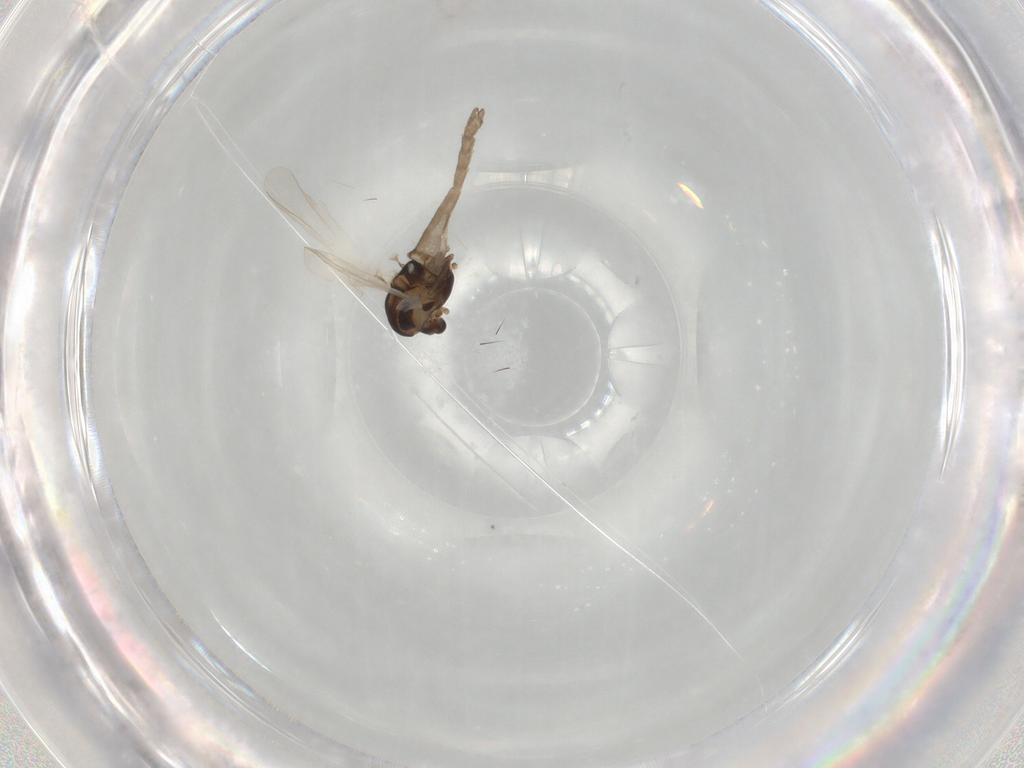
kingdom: Animalia
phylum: Arthropoda
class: Insecta
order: Diptera
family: Chironomidae
